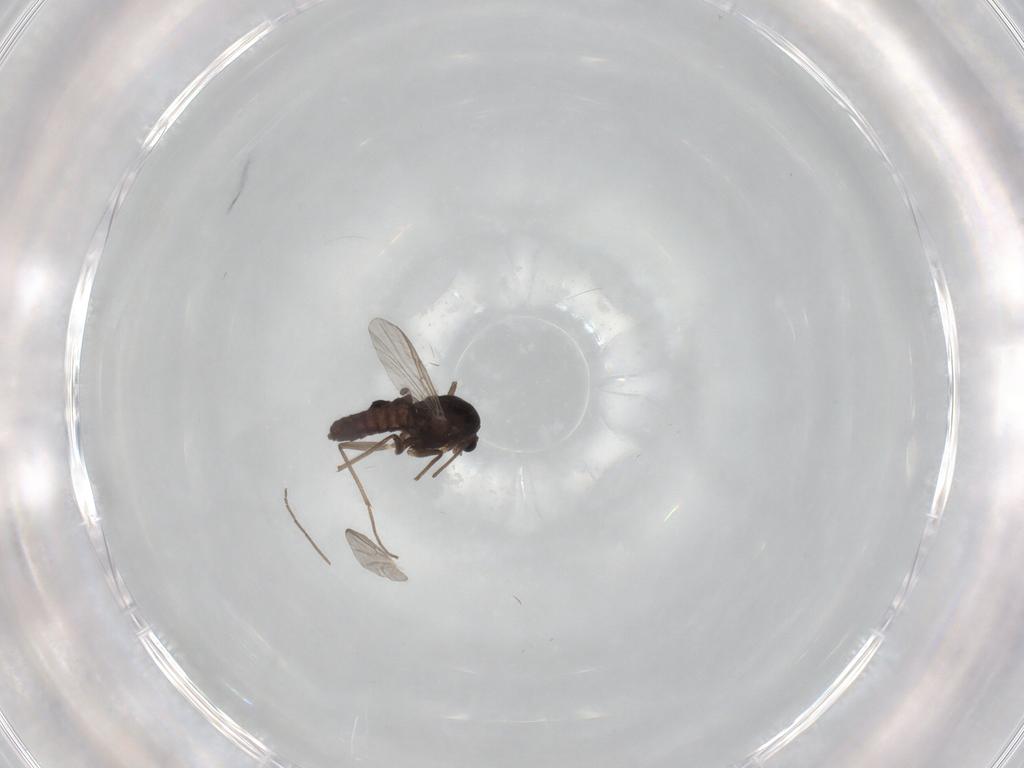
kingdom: Animalia
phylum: Arthropoda
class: Insecta
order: Diptera
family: Chironomidae
